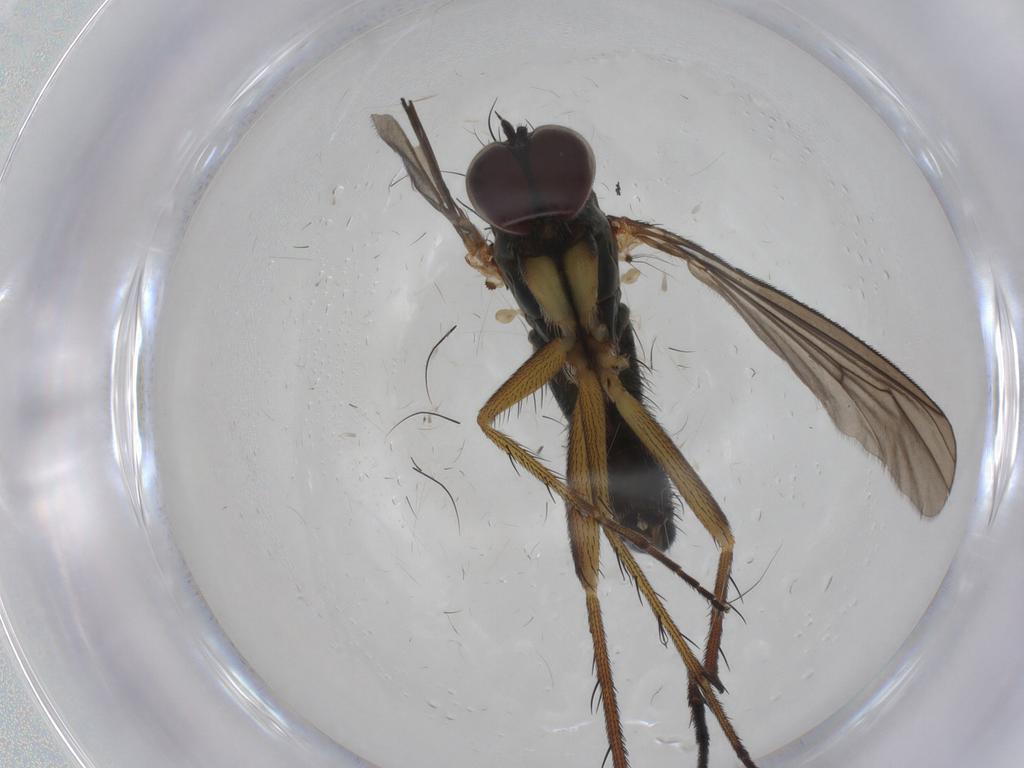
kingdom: Animalia
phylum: Arthropoda
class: Insecta
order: Diptera
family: Dolichopodidae
